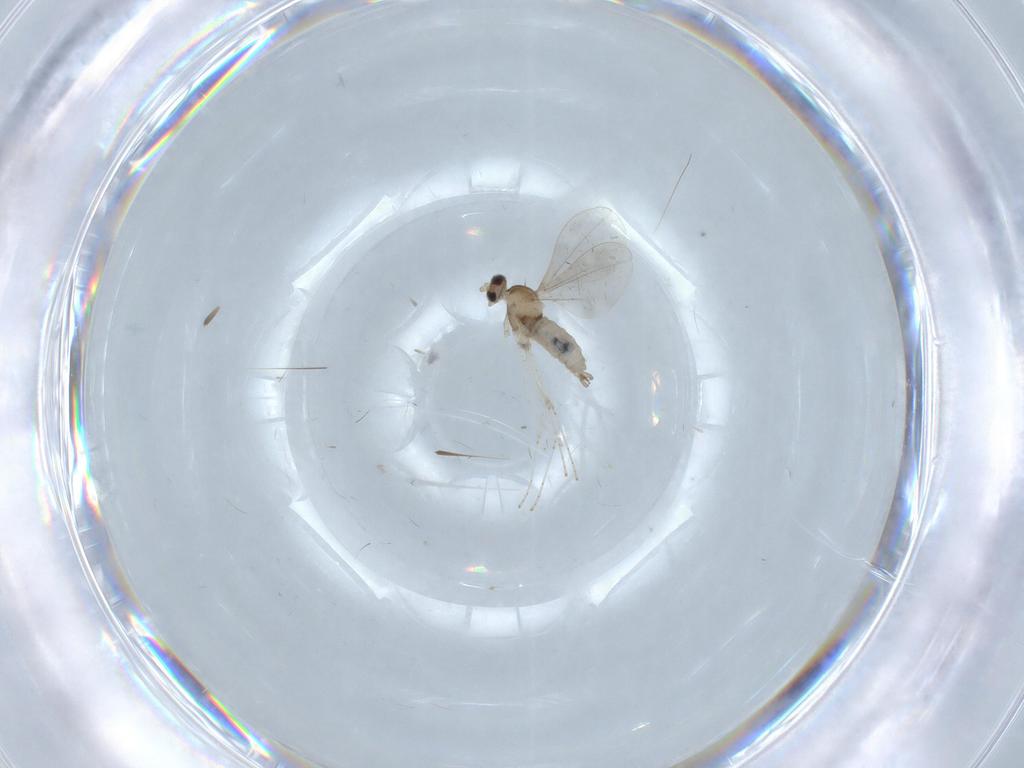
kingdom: Animalia
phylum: Arthropoda
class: Insecta
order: Diptera
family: Cecidomyiidae
